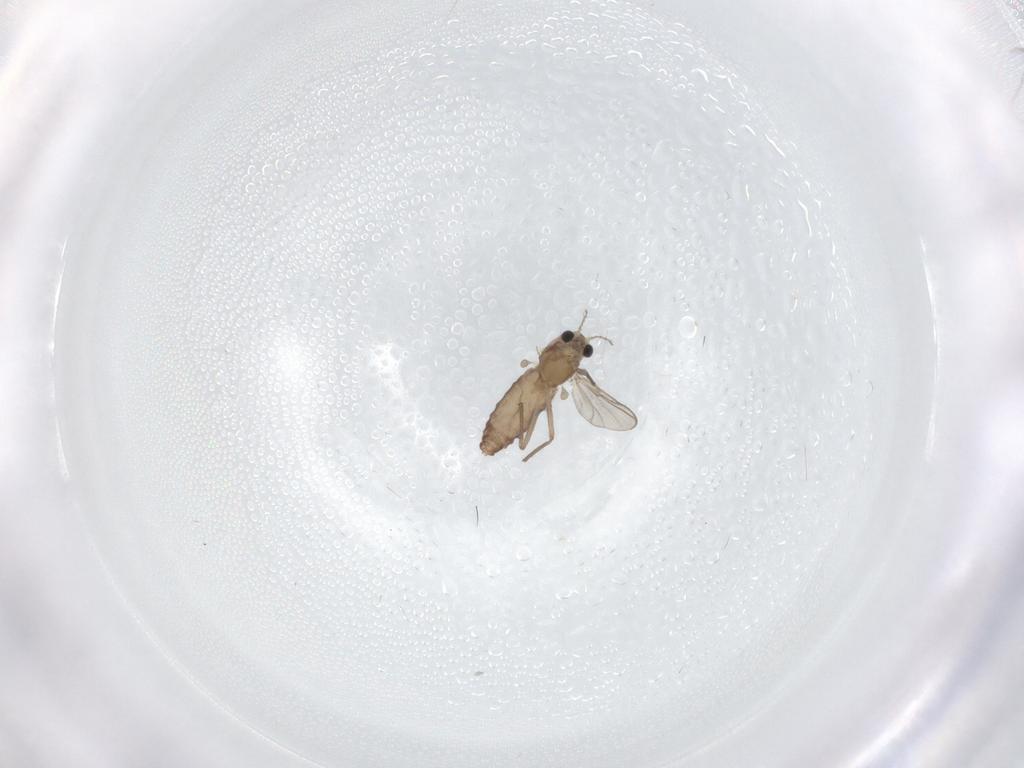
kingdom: Animalia
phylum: Arthropoda
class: Insecta
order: Diptera
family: Chironomidae
